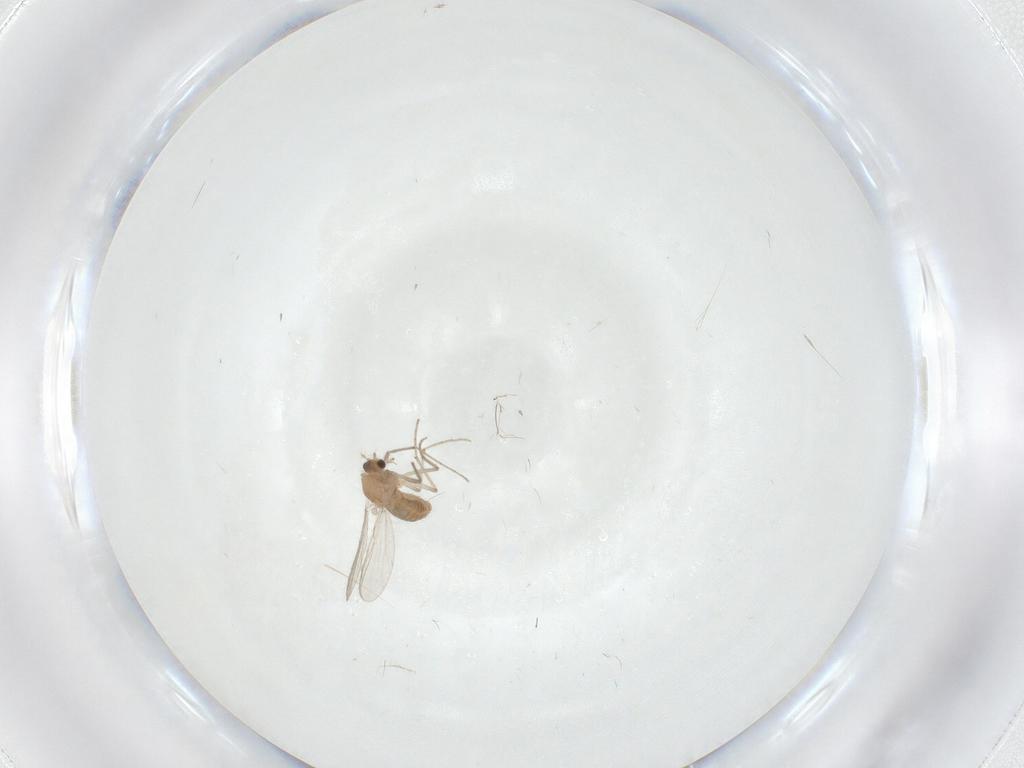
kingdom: Animalia
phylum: Arthropoda
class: Insecta
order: Diptera
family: Chironomidae
